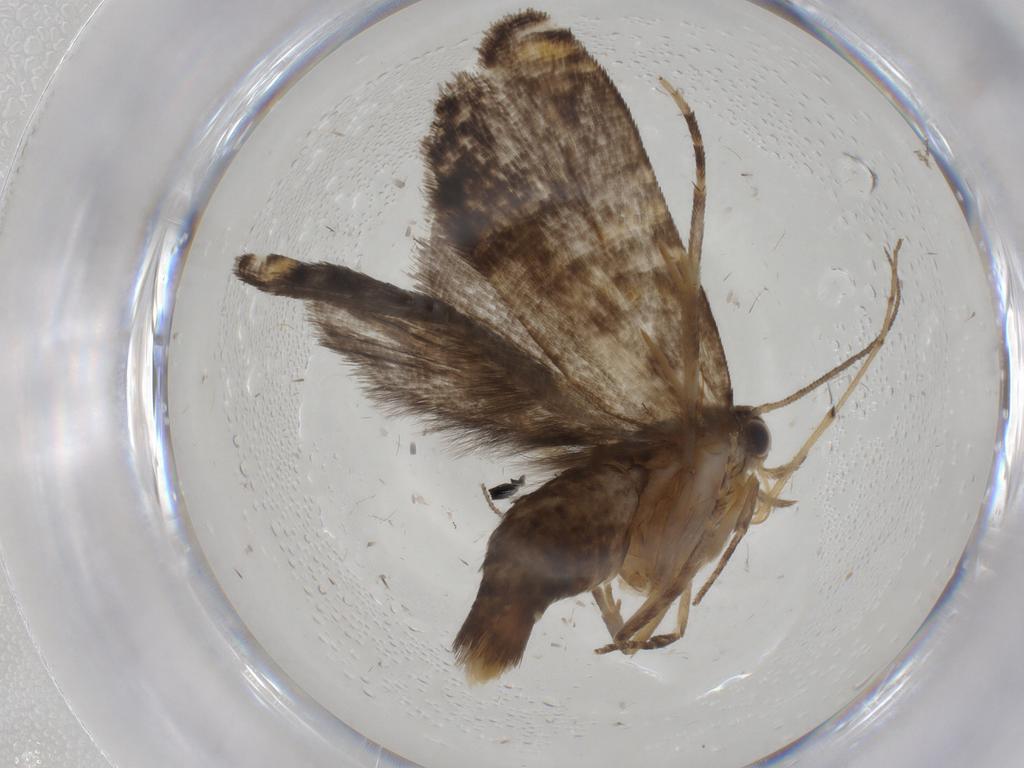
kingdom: Animalia
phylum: Arthropoda
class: Insecta
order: Lepidoptera
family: Glyphipterigidae
